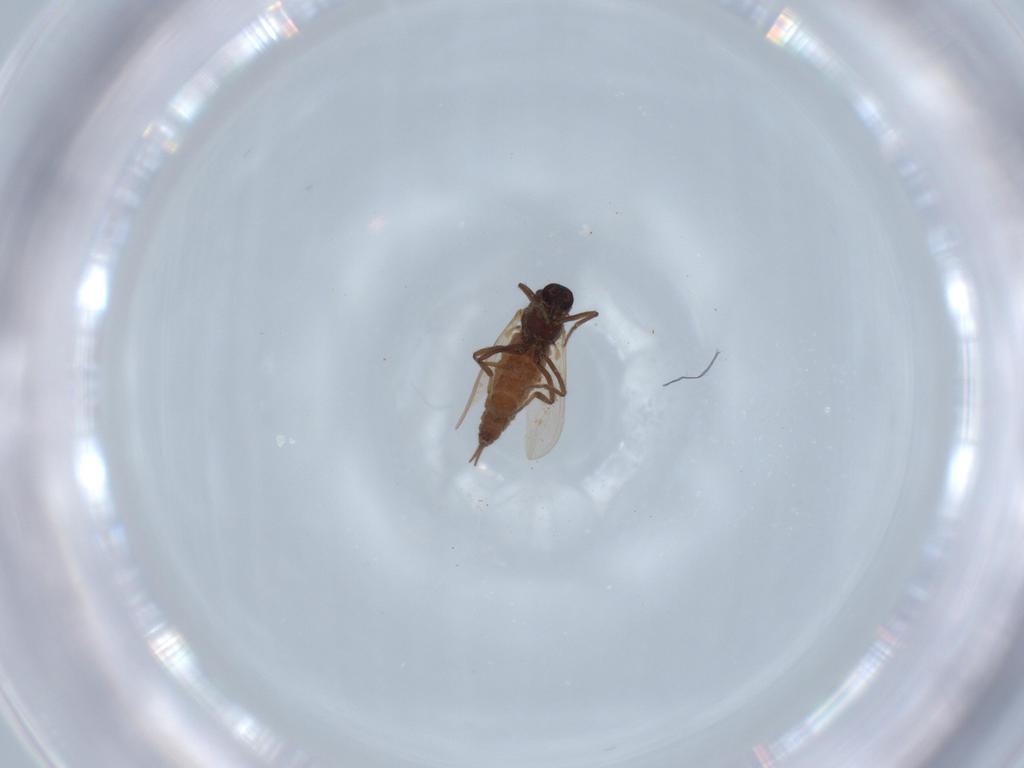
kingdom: Animalia
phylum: Arthropoda
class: Insecta
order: Diptera
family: Ceratopogonidae
